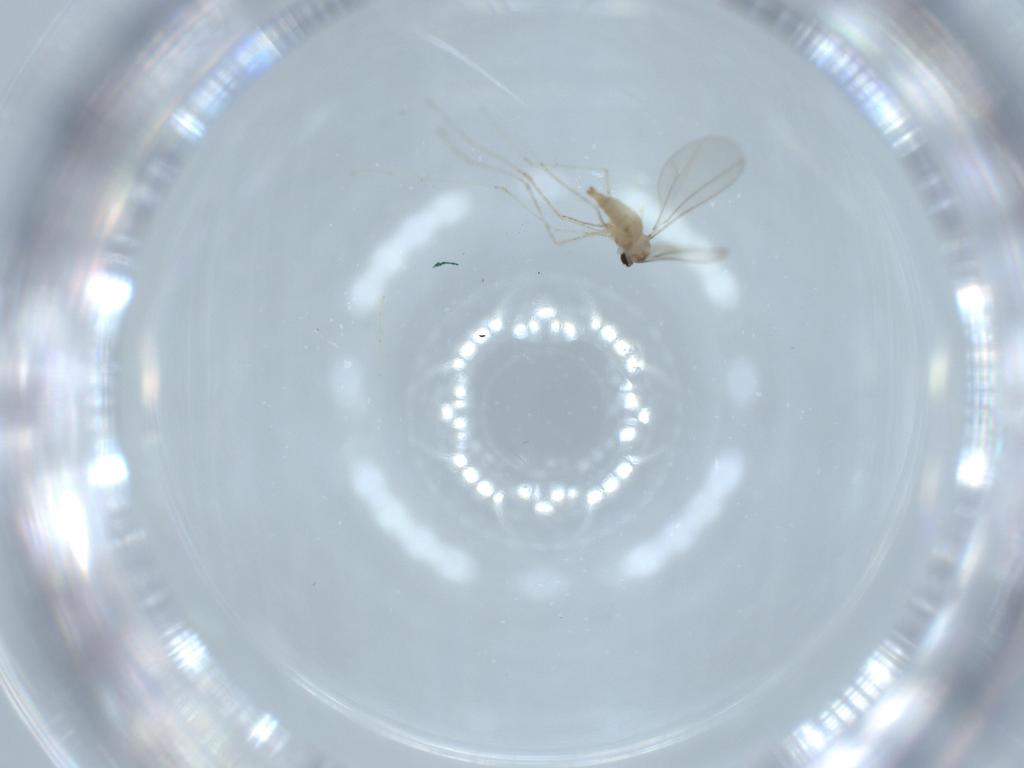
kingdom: Animalia
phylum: Arthropoda
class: Insecta
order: Diptera
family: Cecidomyiidae
